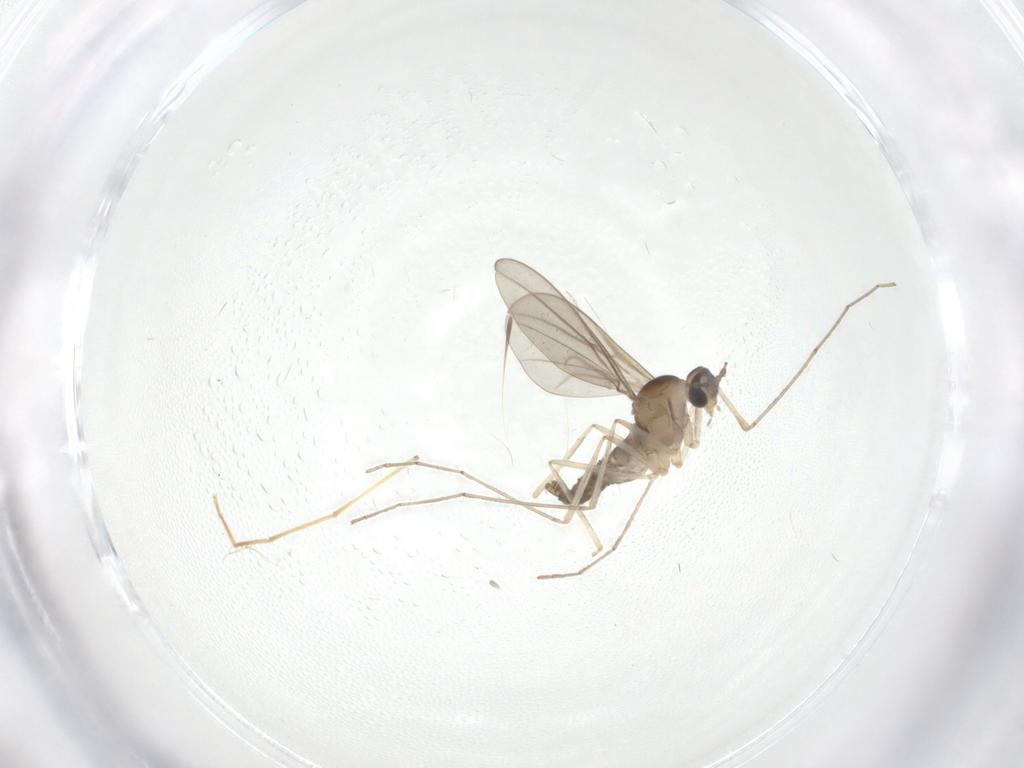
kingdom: Animalia
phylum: Arthropoda
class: Insecta
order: Diptera
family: Chironomidae
